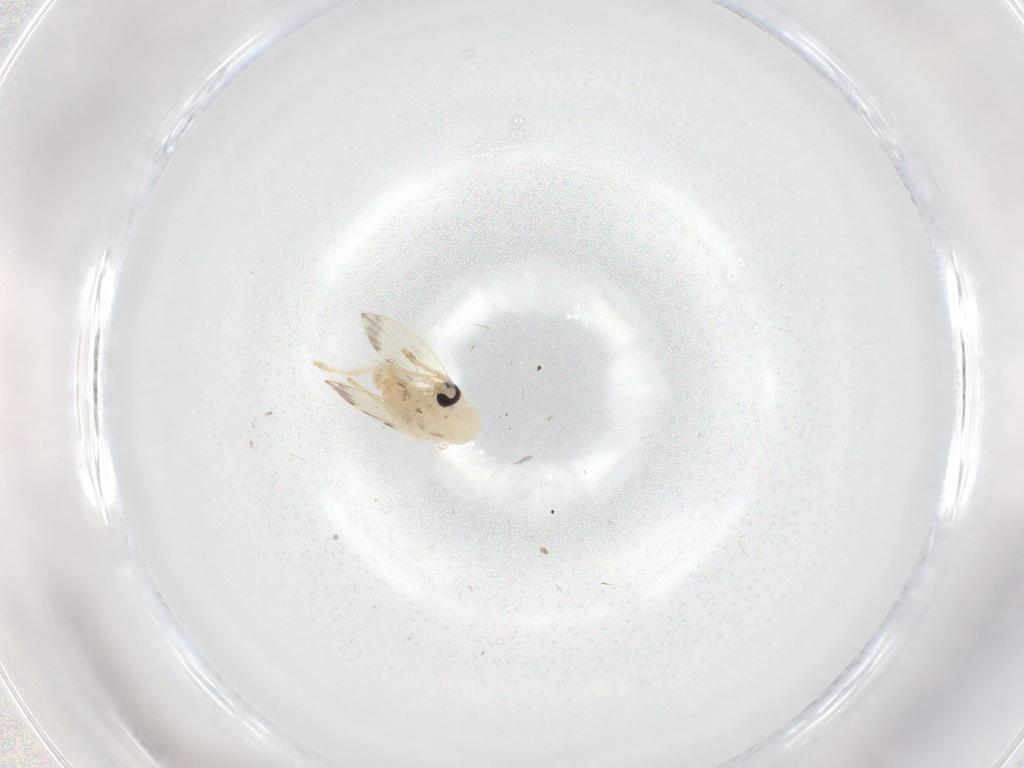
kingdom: Animalia
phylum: Arthropoda
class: Insecta
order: Diptera
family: Psychodidae
